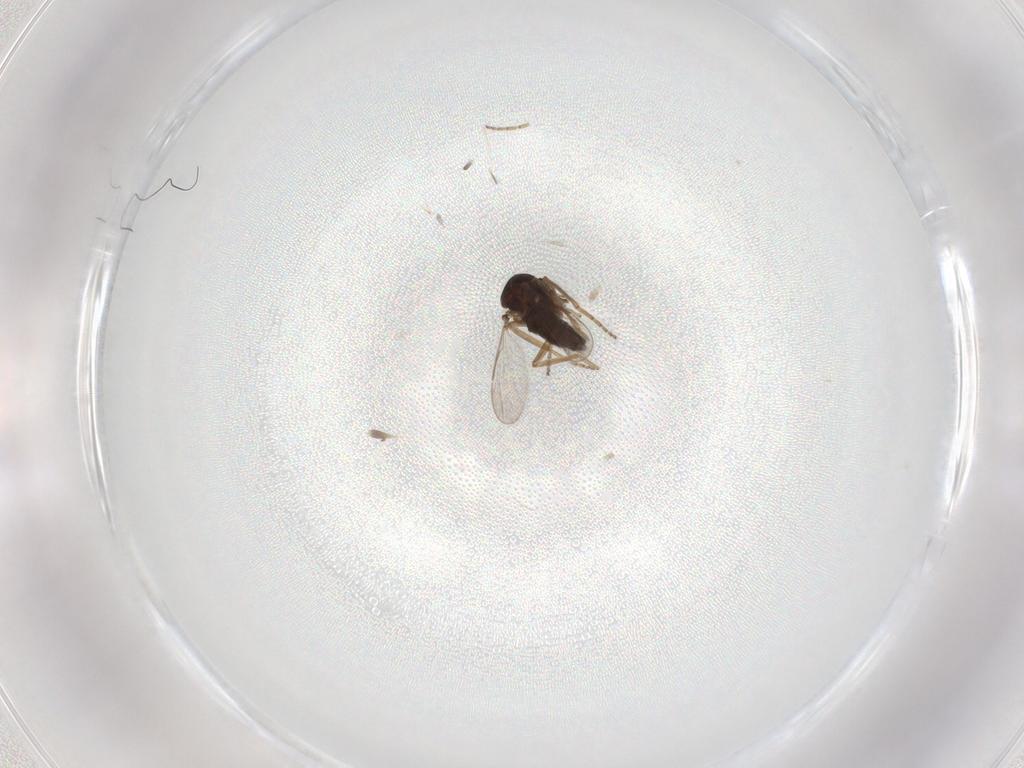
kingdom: Animalia
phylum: Arthropoda
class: Insecta
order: Diptera
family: Ceratopogonidae
